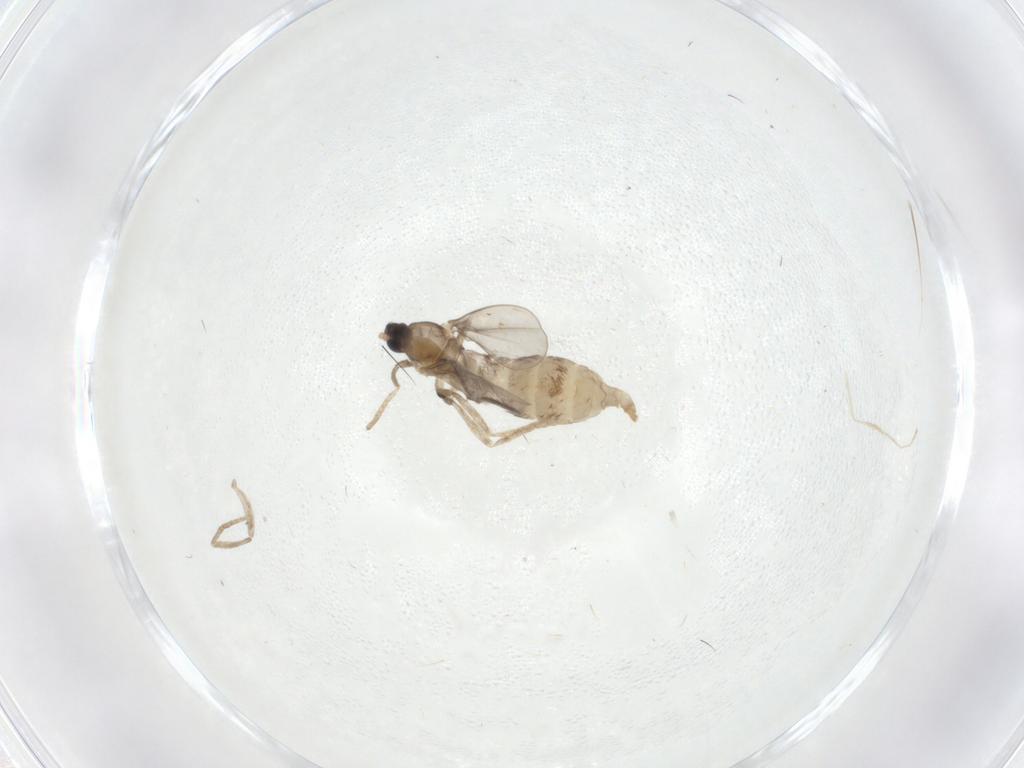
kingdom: Animalia
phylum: Arthropoda
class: Insecta
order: Diptera
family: Cecidomyiidae
